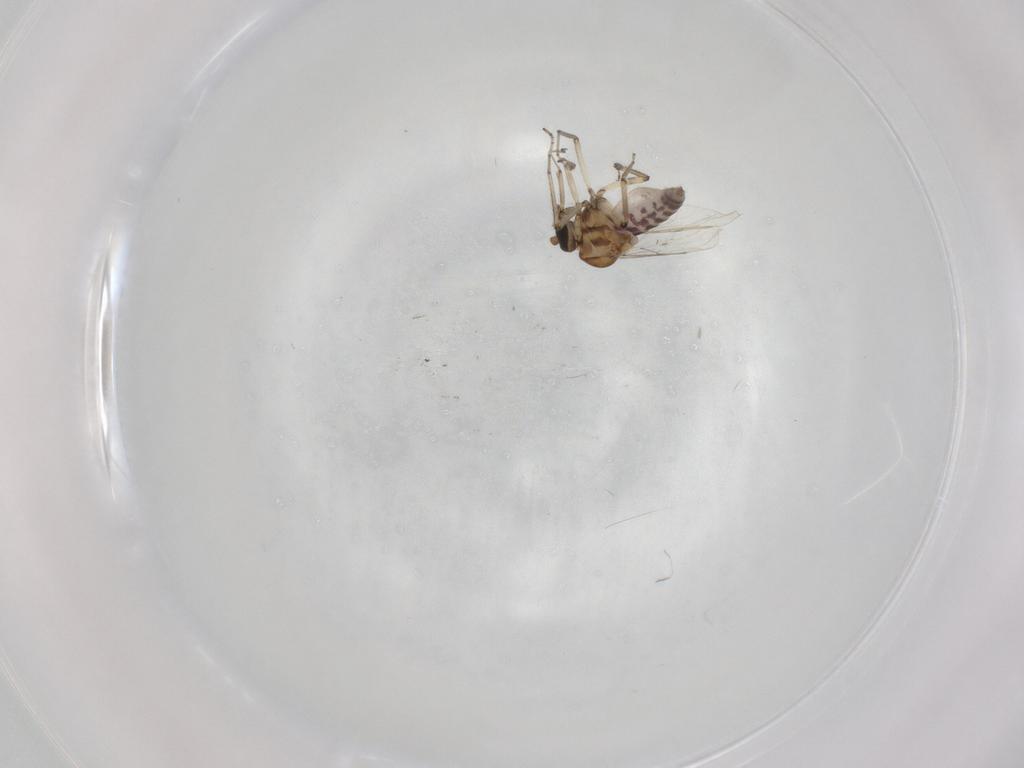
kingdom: Animalia
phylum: Arthropoda
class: Insecta
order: Diptera
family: Ceratopogonidae
